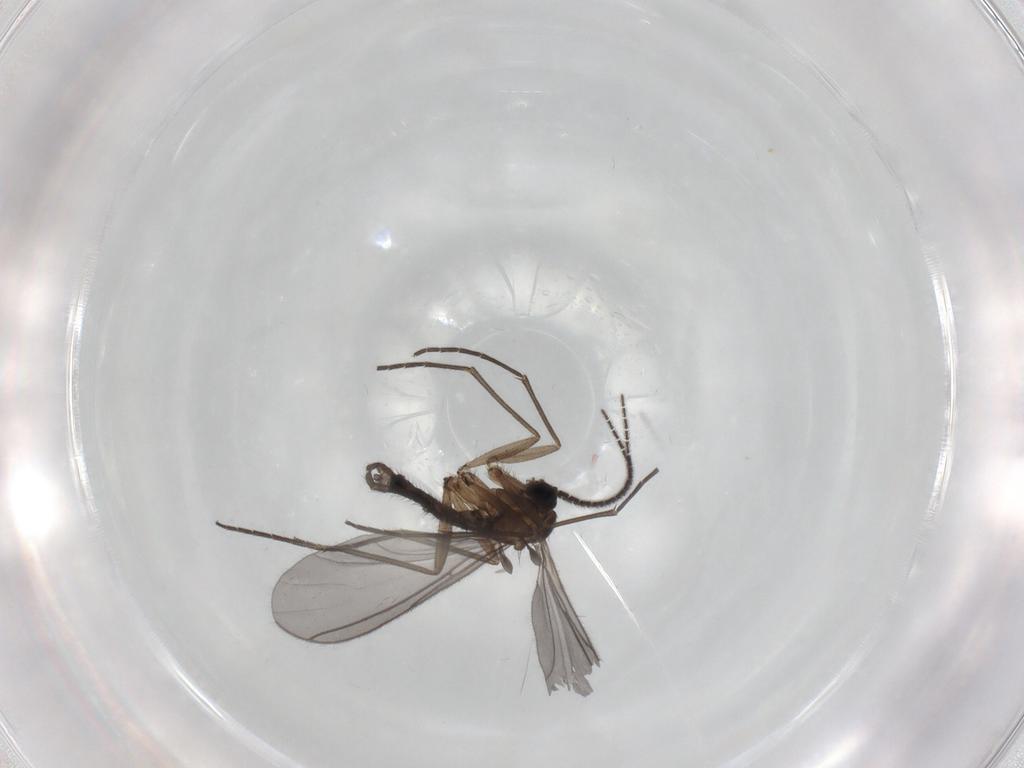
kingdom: Animalia
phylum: Arthropoda
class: Insecta
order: Diptera
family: Sciaridae
